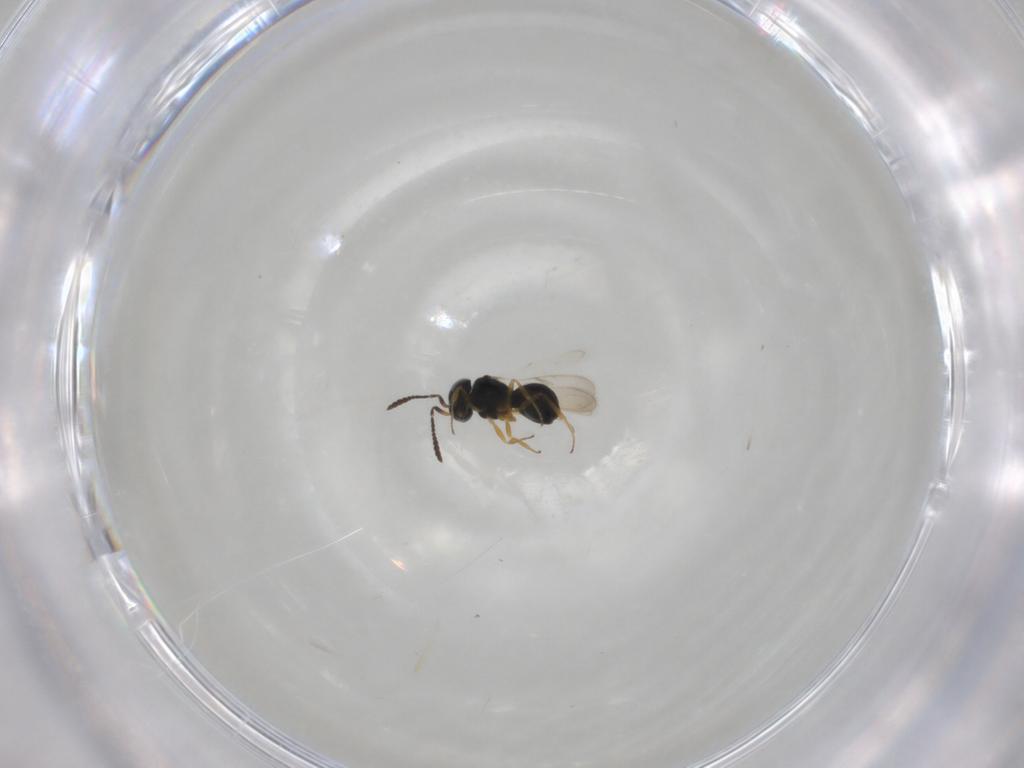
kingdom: Animalia
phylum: Arthropoda
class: Insecta
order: Hymenoptera
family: Scelionidae
